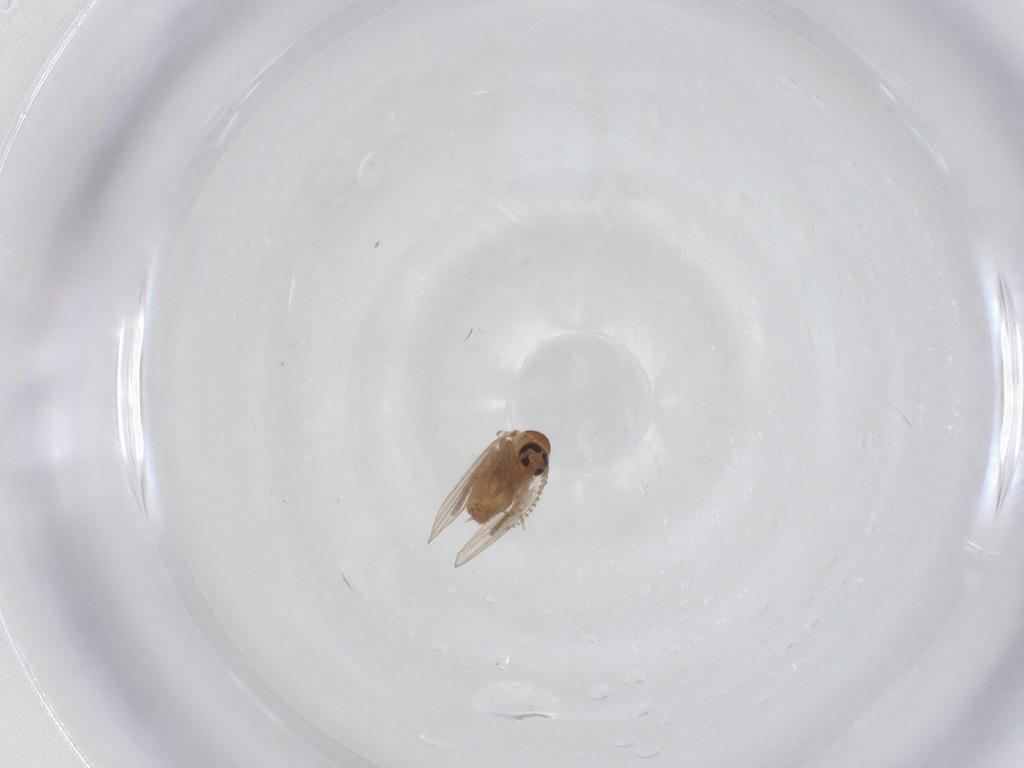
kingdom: Animalia
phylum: Arthropoda
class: Insecta
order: Diptera
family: Psychodidae
